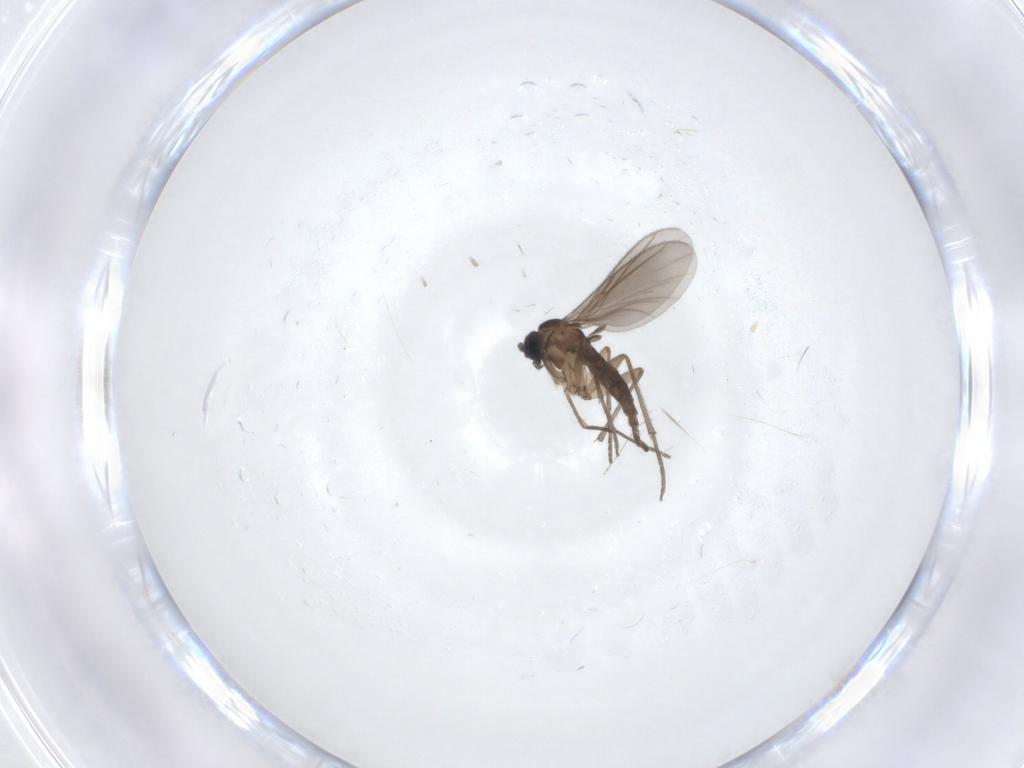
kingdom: Animalia
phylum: Arthropoda
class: Insecta
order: Diptera
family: Sciaridae
